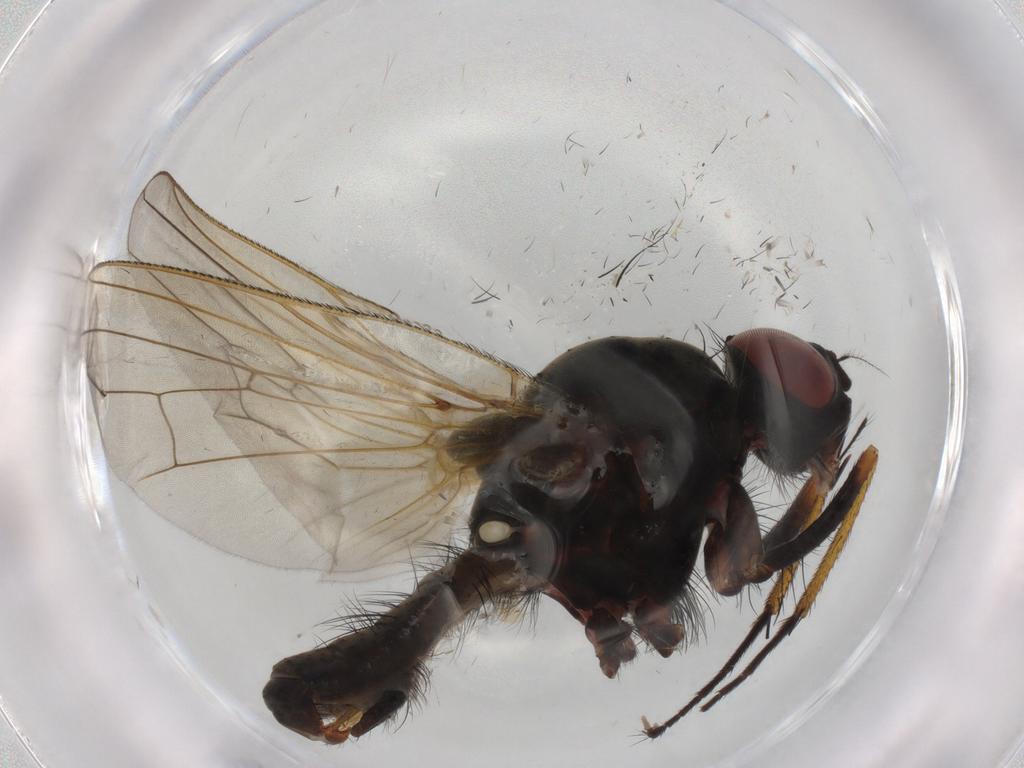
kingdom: Animalia
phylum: Arthropoda
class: Insecta
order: Diptera
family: Anthomyiidae
